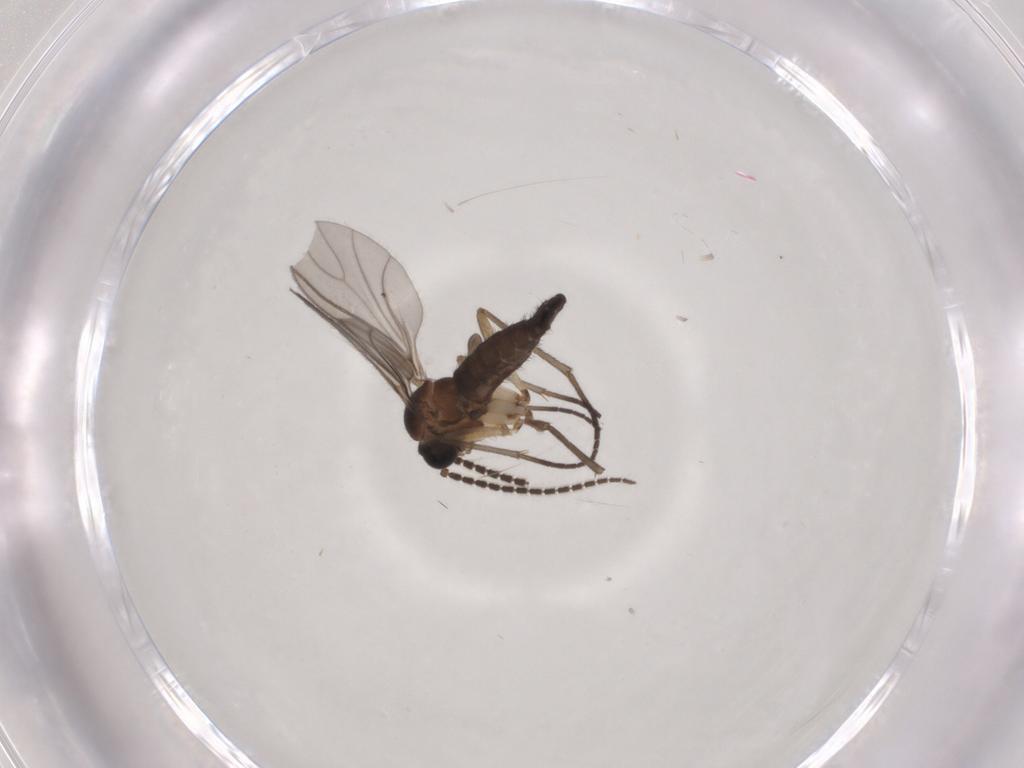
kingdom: Animalia
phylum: Arthropoda
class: Insecta
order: Diptera
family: Sciaridae
